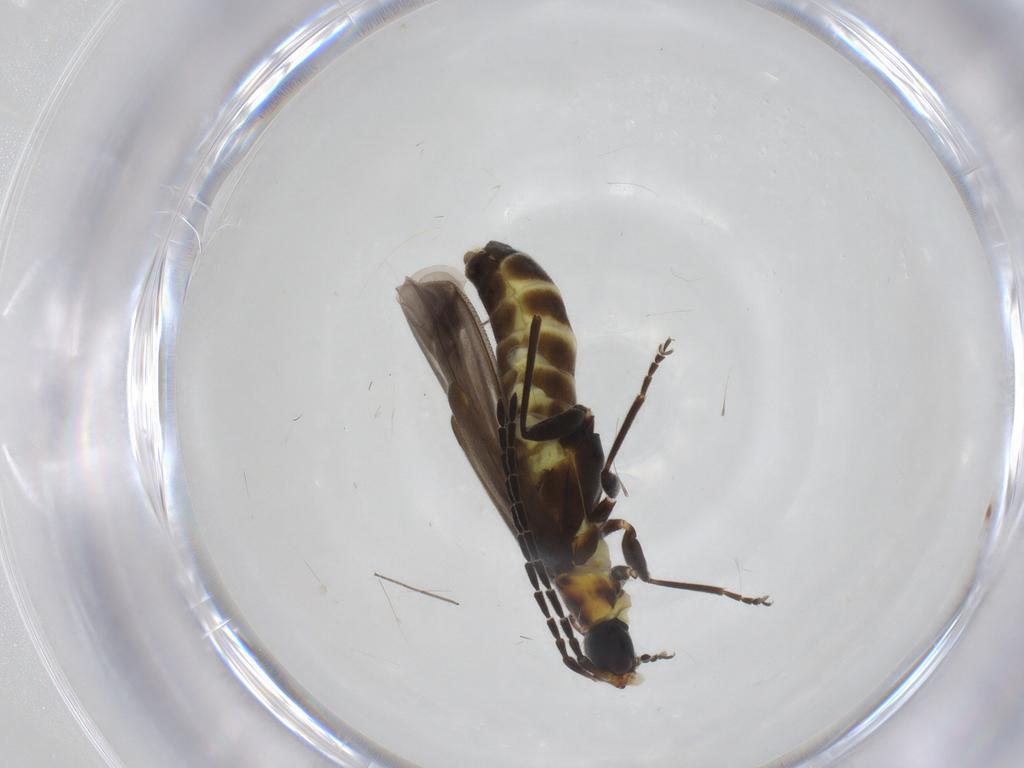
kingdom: Animalia
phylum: Arthropoda
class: Insecta
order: Coleoptera
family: Cantharidae
